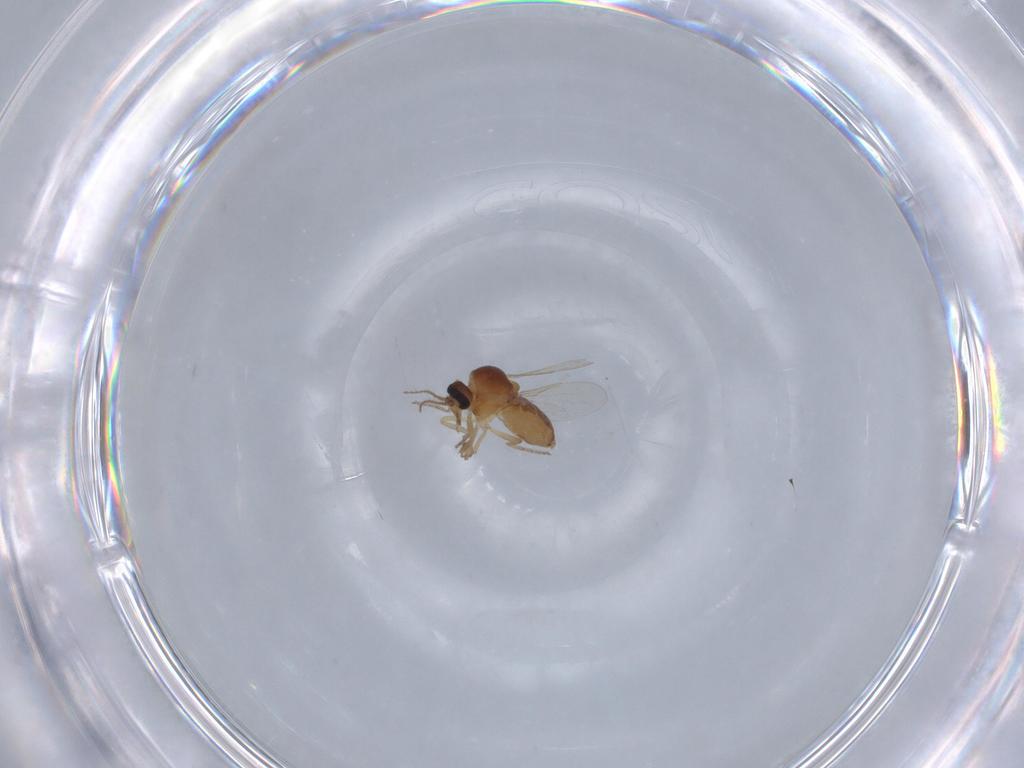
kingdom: Animalia
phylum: Arthropoda
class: Insecta
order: Diptera
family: Ceratopogonidae
